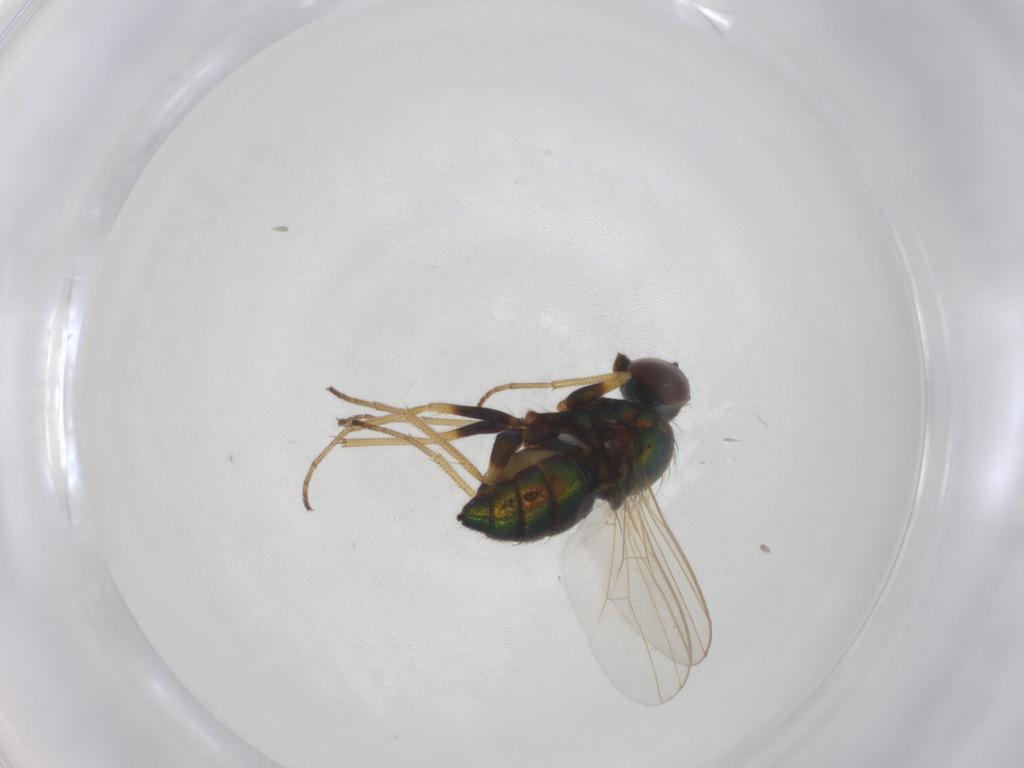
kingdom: Animalia
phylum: Arthropoda
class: Insecta
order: Diptera
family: Dolichopodidae
